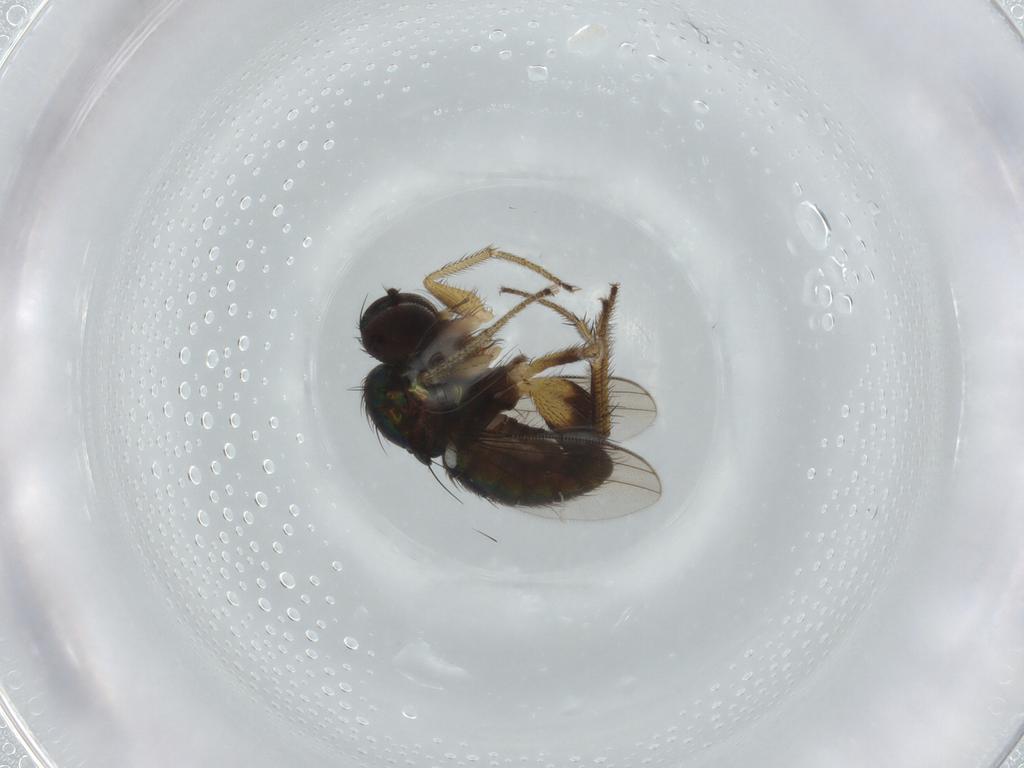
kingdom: Animalia
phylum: Arthropoda
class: Insecta
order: Diptera
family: Dolichopodidae
